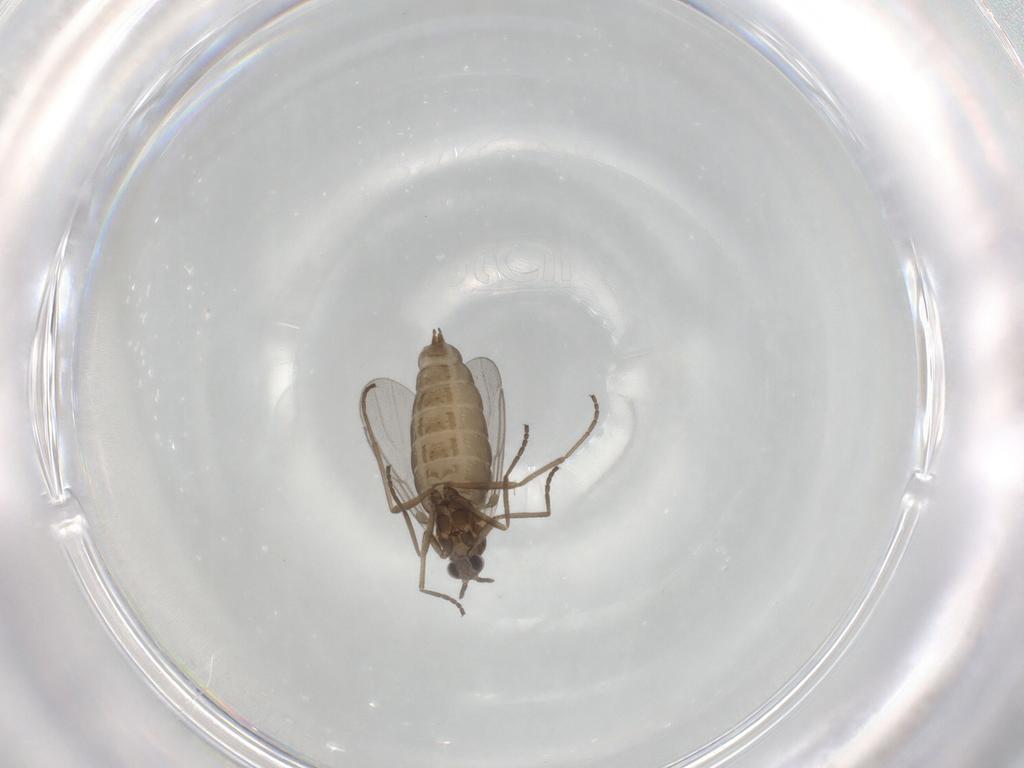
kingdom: Animalia
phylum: Arthropoda
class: Insecta
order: Diptera
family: Cecidomyiidae
